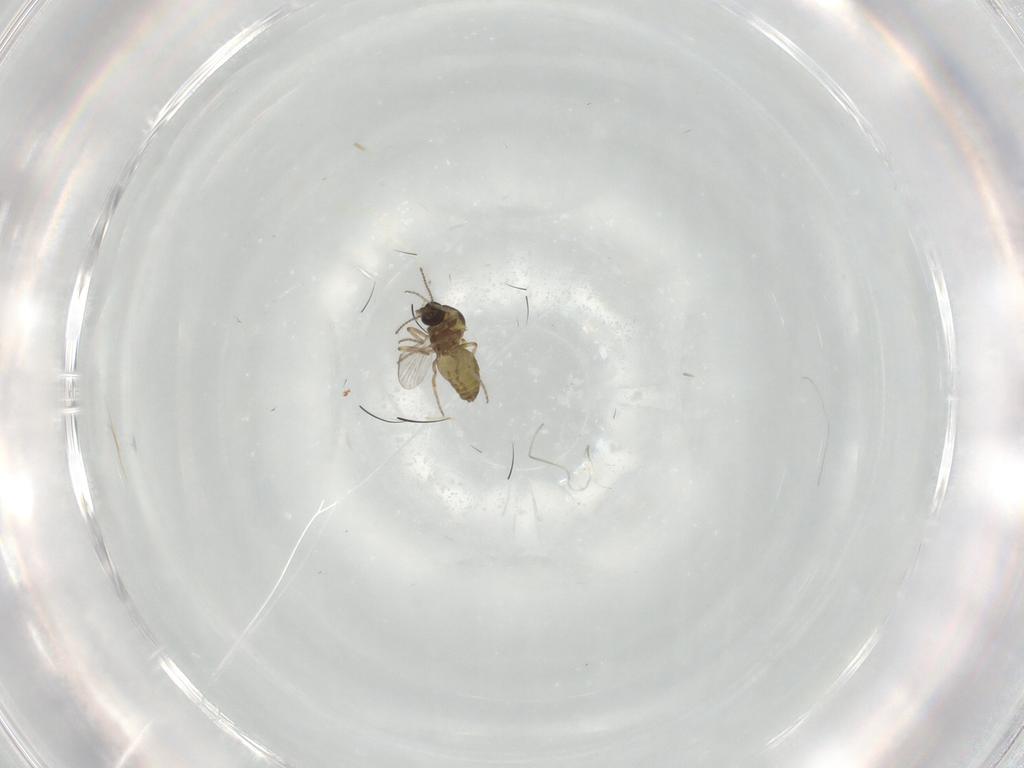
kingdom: Animalia
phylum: Arthropoda
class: Insecta
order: Diptera
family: Ceratopogonidae
